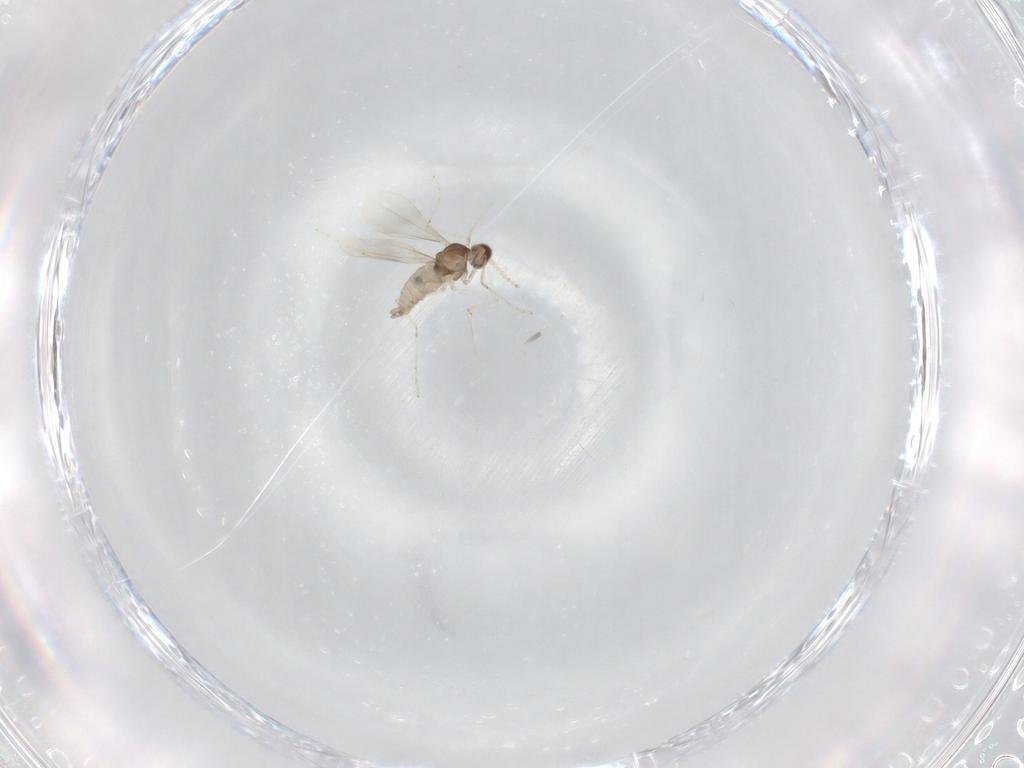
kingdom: Animalia
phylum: Arthropoda
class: Insecta
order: Diptera
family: Cecidomyiidae
